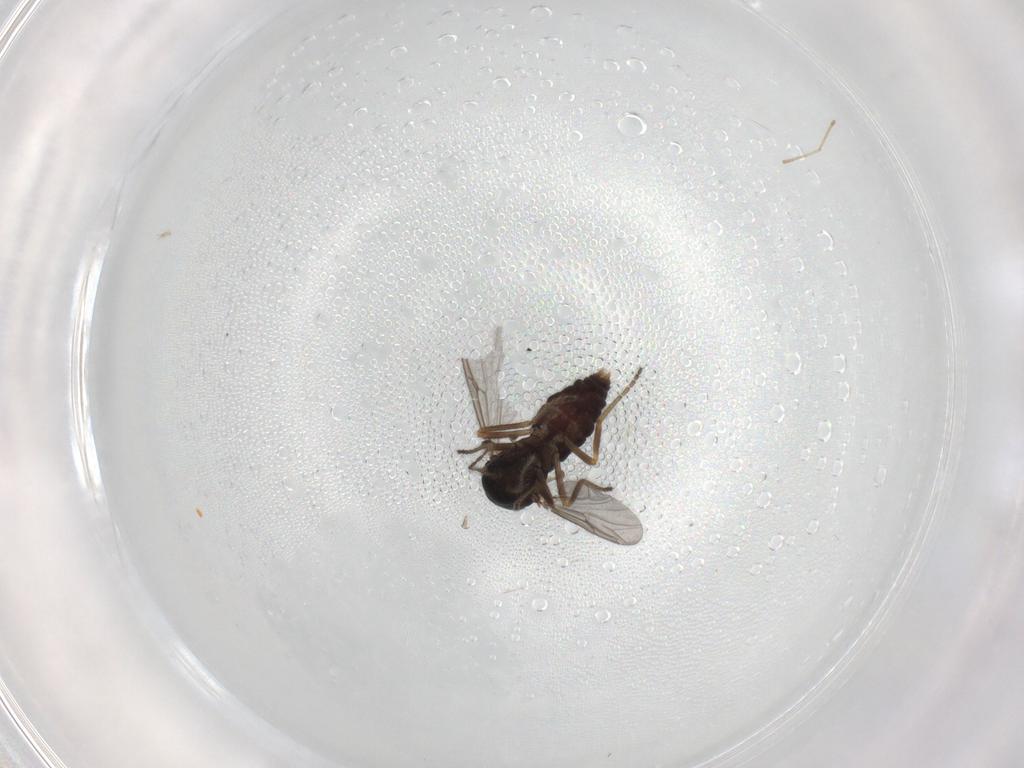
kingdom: Animalia
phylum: Arthropoda
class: Insecta
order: Diptera
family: Ceratopogonidae
